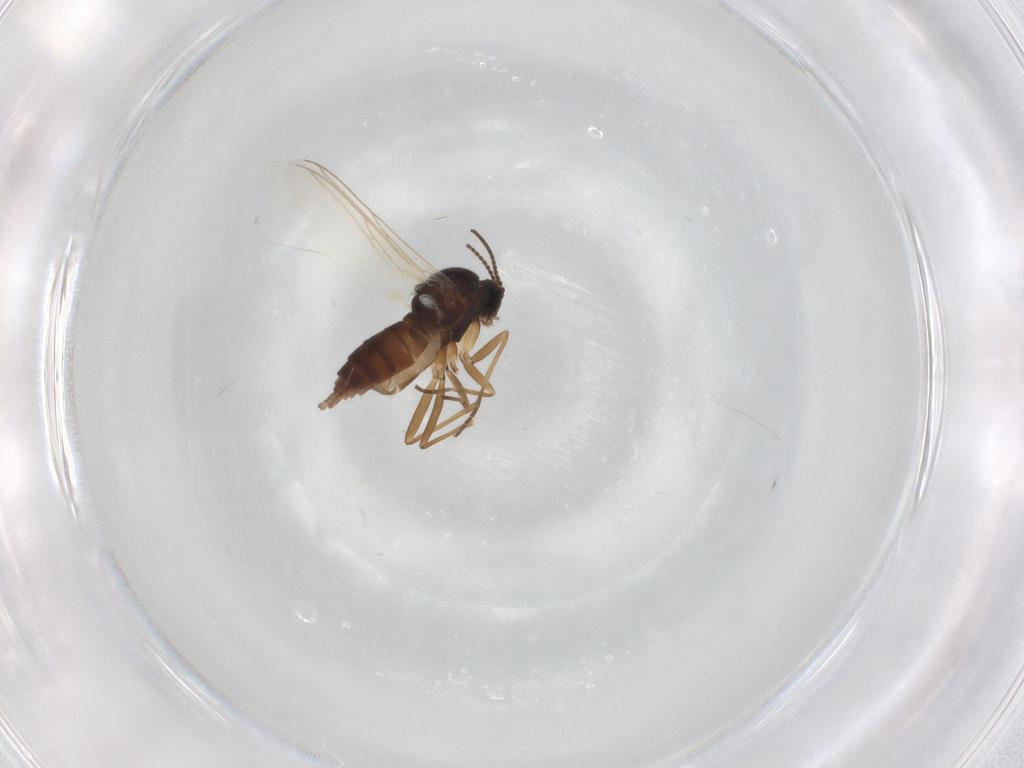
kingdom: Animalia
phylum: Arthropoda
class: Insecta
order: Diptera
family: Sciaridae
